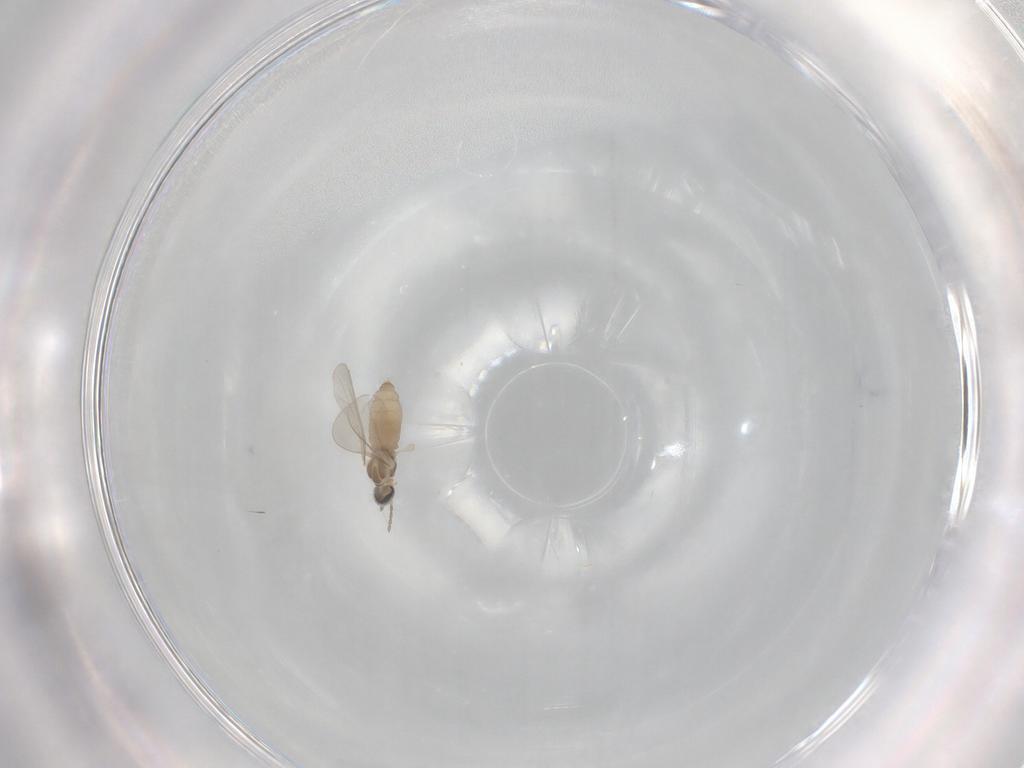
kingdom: Animalia
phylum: Arthropoda
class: Insecta
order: Diptera
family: Cecidomyiidae
